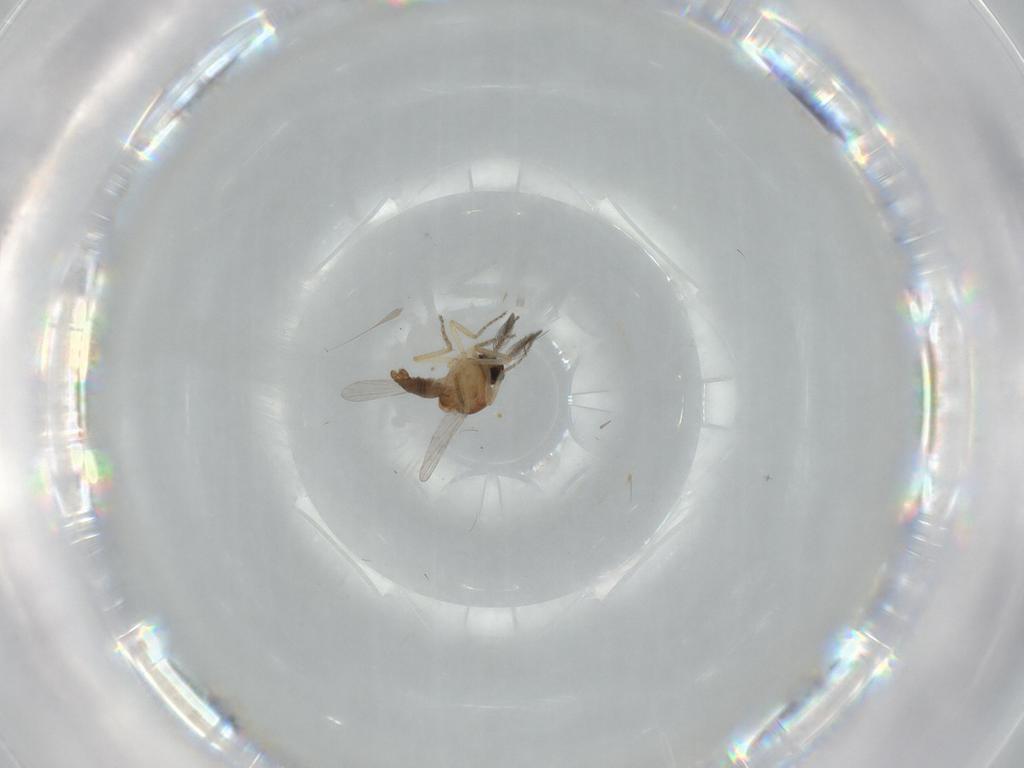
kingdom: Animalia
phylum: Arthropoda
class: Insecta
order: Diptera
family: Ceratopogonidae
